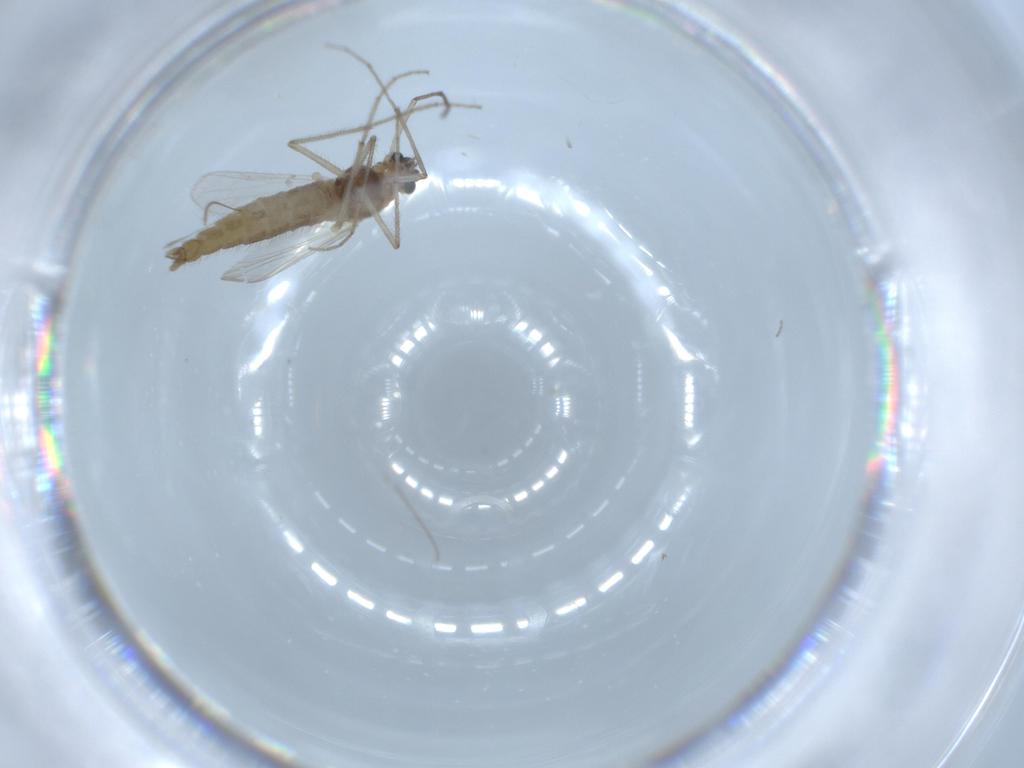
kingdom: Animalia
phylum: Arthropoda
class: Insecta
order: Diptera
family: Chironomidae
